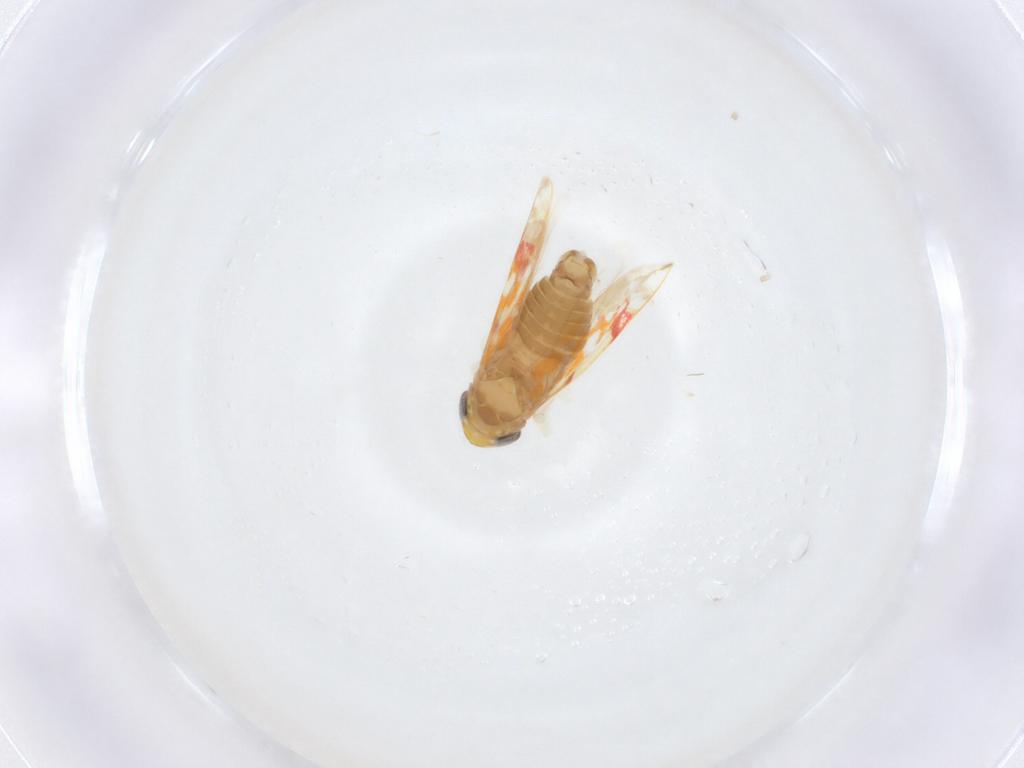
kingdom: Animalia
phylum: Arthropoda
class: Insecta
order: Hemiptera
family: Cicadellidae
